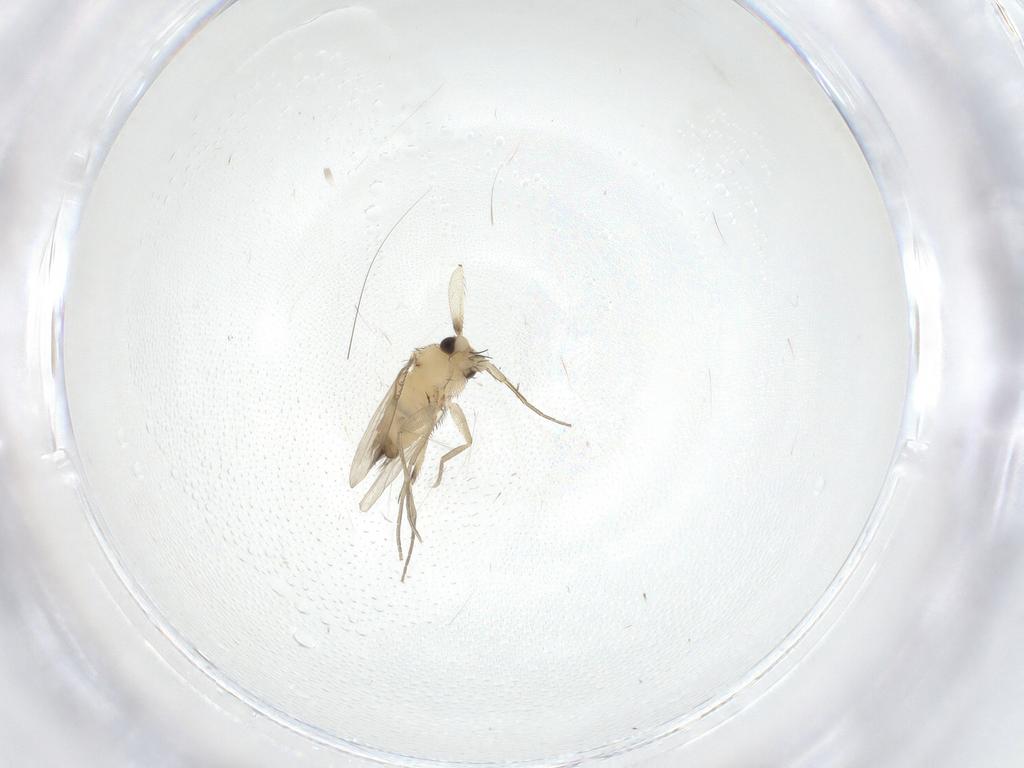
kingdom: Animalia
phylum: Arthropoda
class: Insecta
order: Diptera
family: Phoridae
